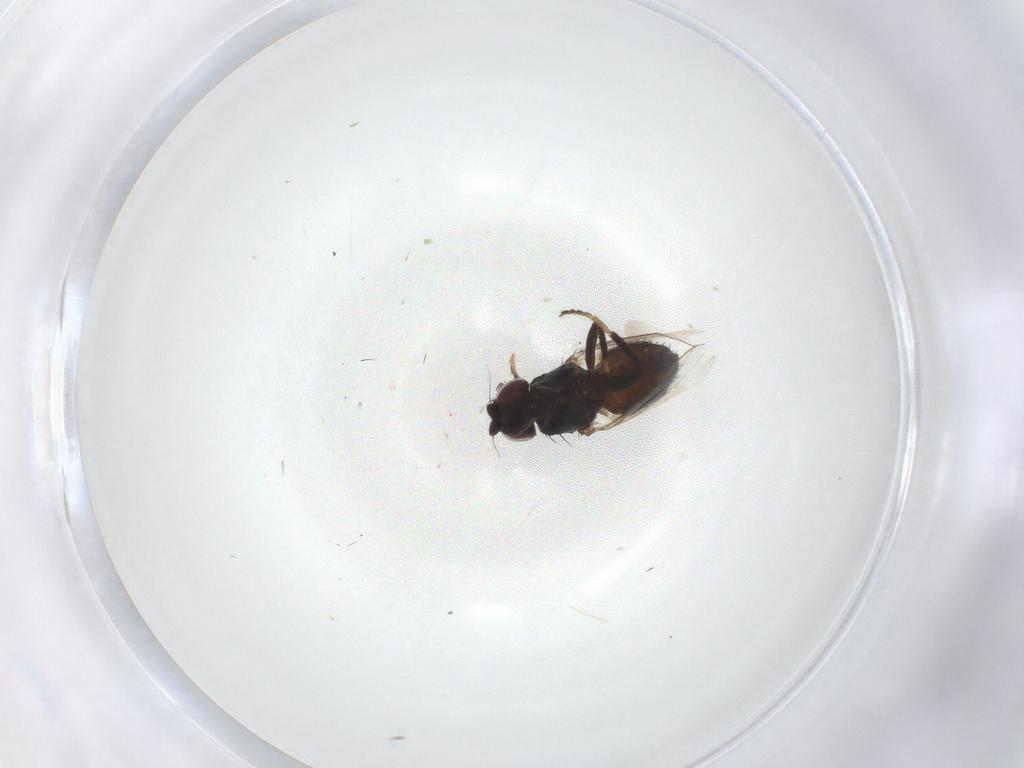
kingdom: Animalia
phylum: Arthropoda
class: Insecta
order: Diptera
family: Milichiidae
